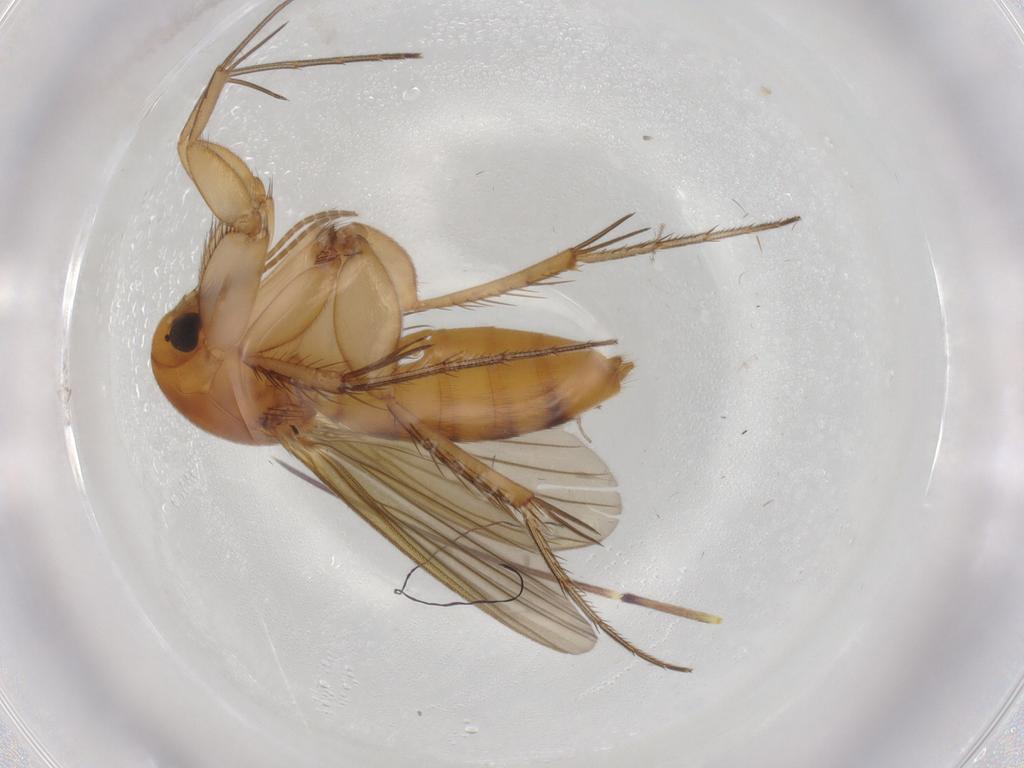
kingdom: Animalia
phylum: Arthropoda
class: Insecta
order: Diptera
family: Mycetophilidae
